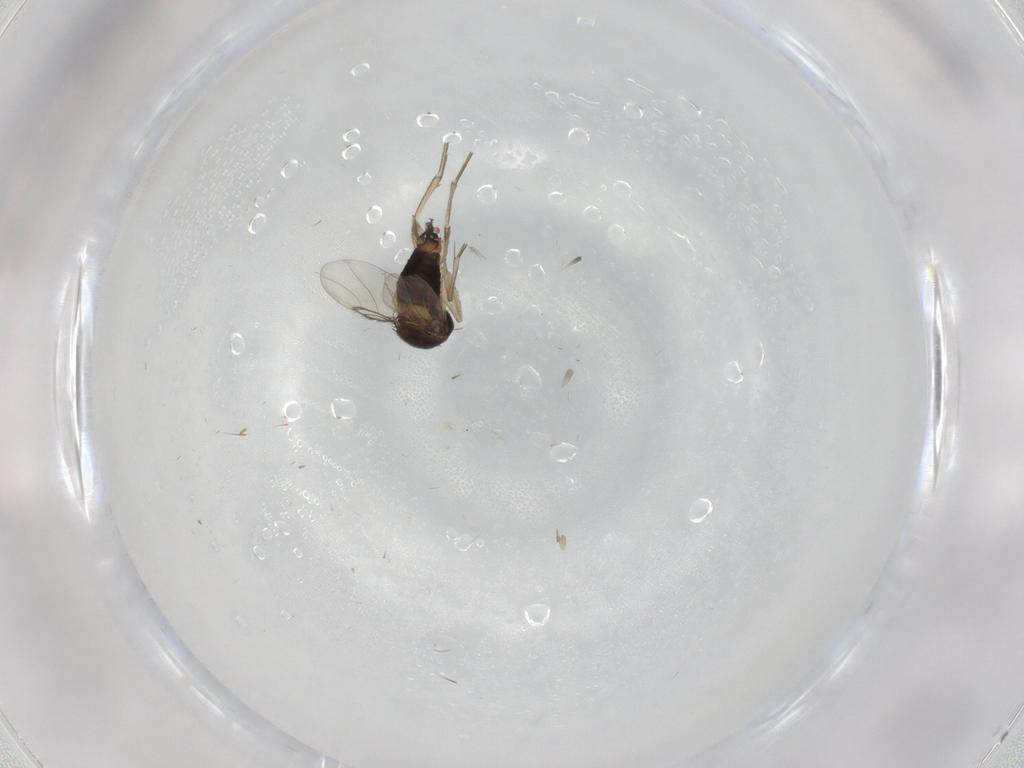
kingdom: Animalia
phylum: Arthropoda
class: Insecta
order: Diptera
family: Cecidomyiidae
